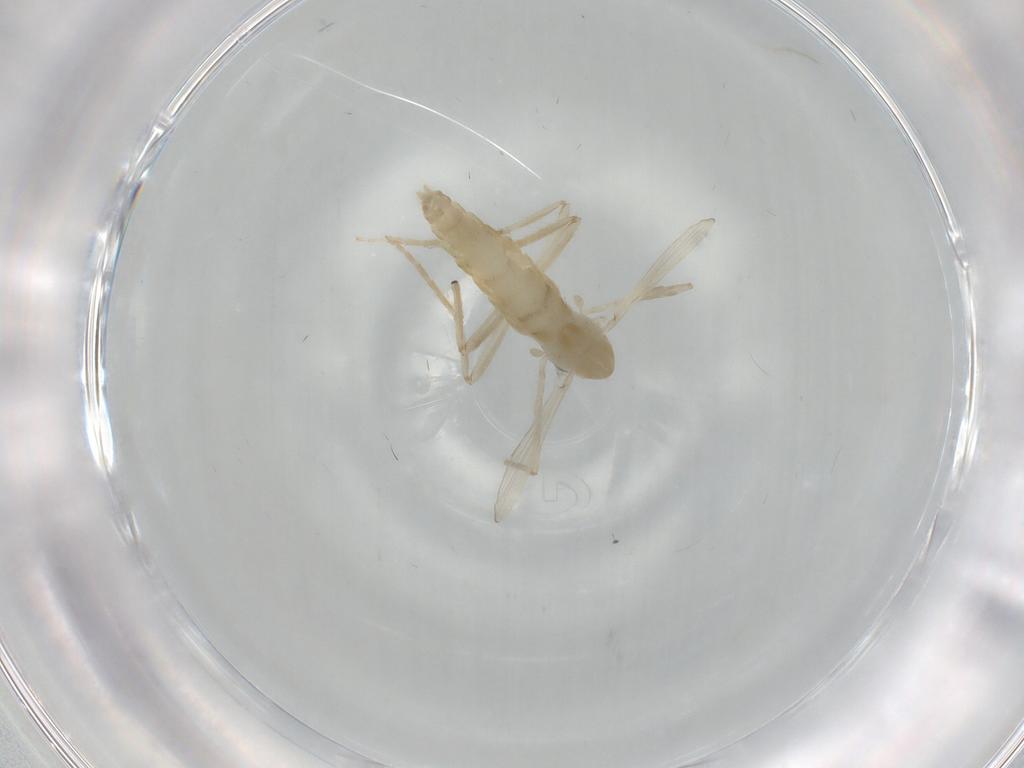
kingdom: Animalia
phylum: Arthropoda
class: Insecta
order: Diptera
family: Chironomidae
